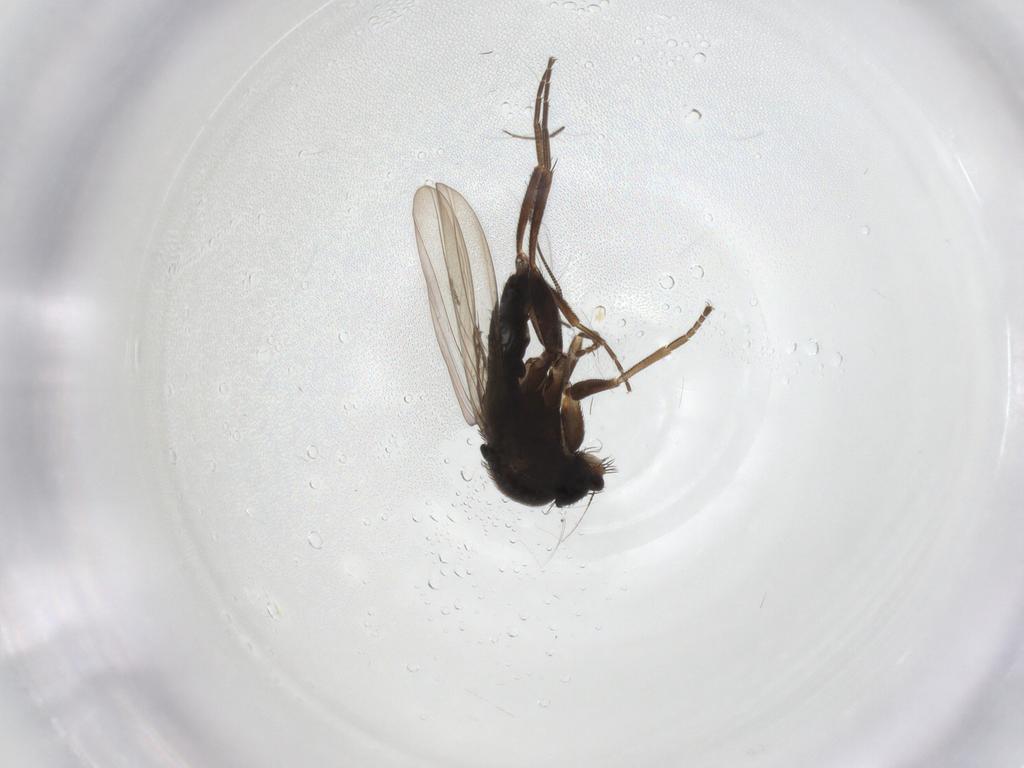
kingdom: Animalia
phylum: Arthropoda
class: Insecta
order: Diptera
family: Phoridae
